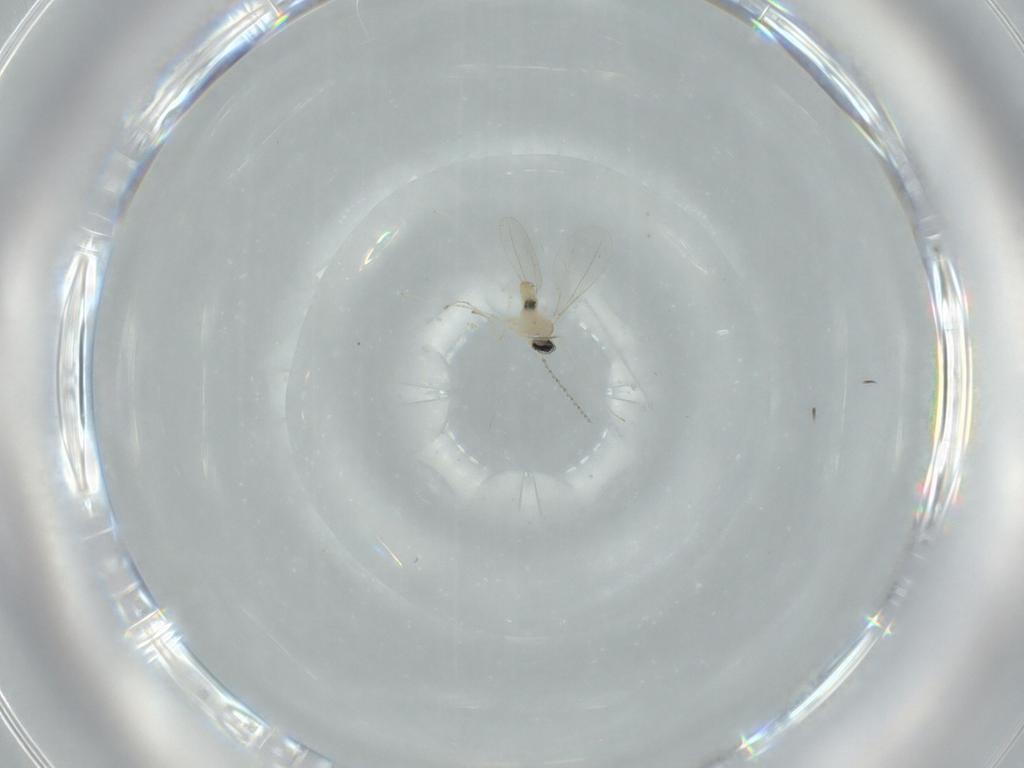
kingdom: Animalia
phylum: Arthropoda
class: Insecta
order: Diptera
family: Cecidomyiidae
